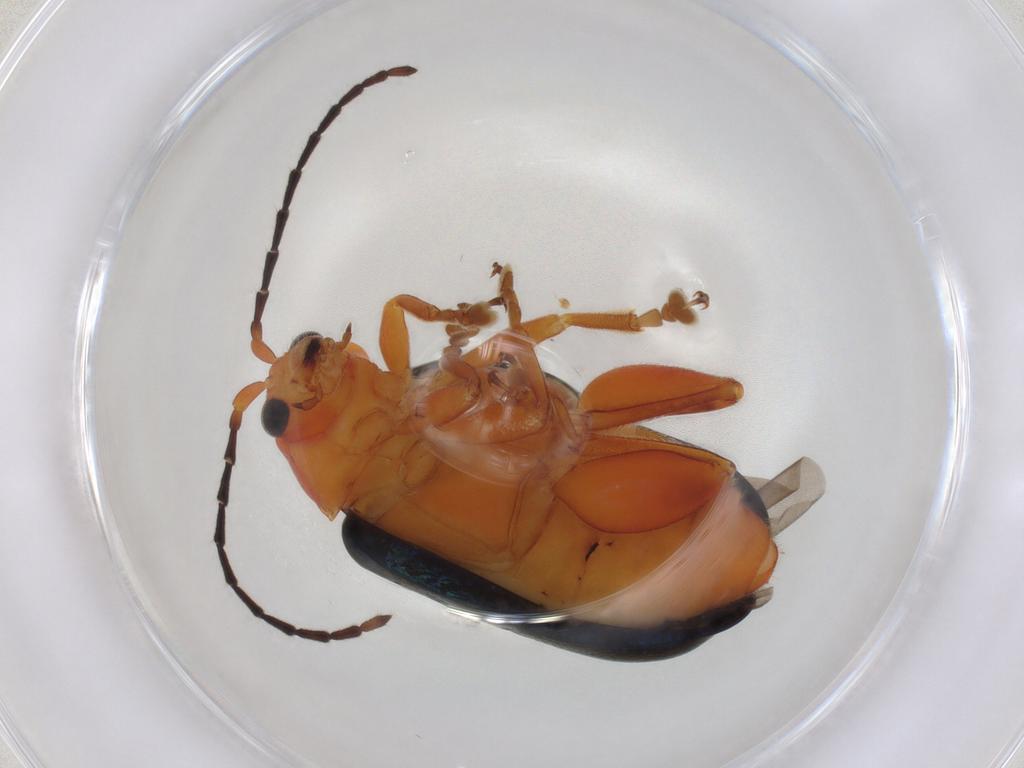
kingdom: Animalia
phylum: Arthropoda
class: Insecta
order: Coleoptera
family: Chrysomelidae
